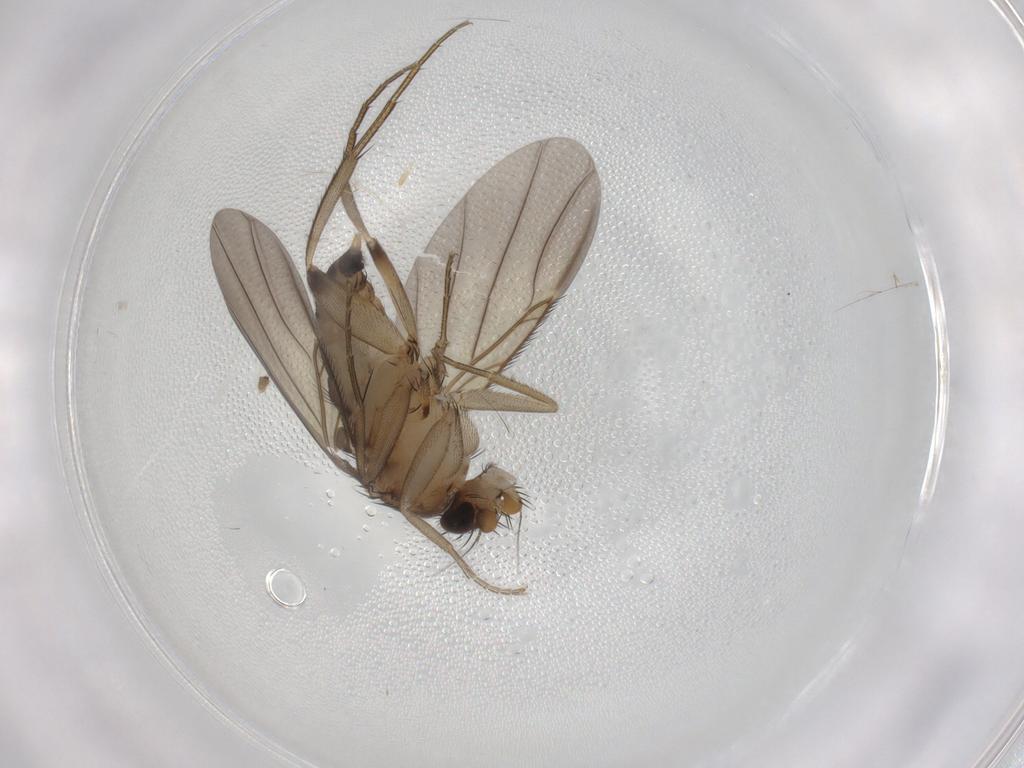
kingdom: Animalia
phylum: Arthropoda
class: Insecta
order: Diptera
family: Phoridae
